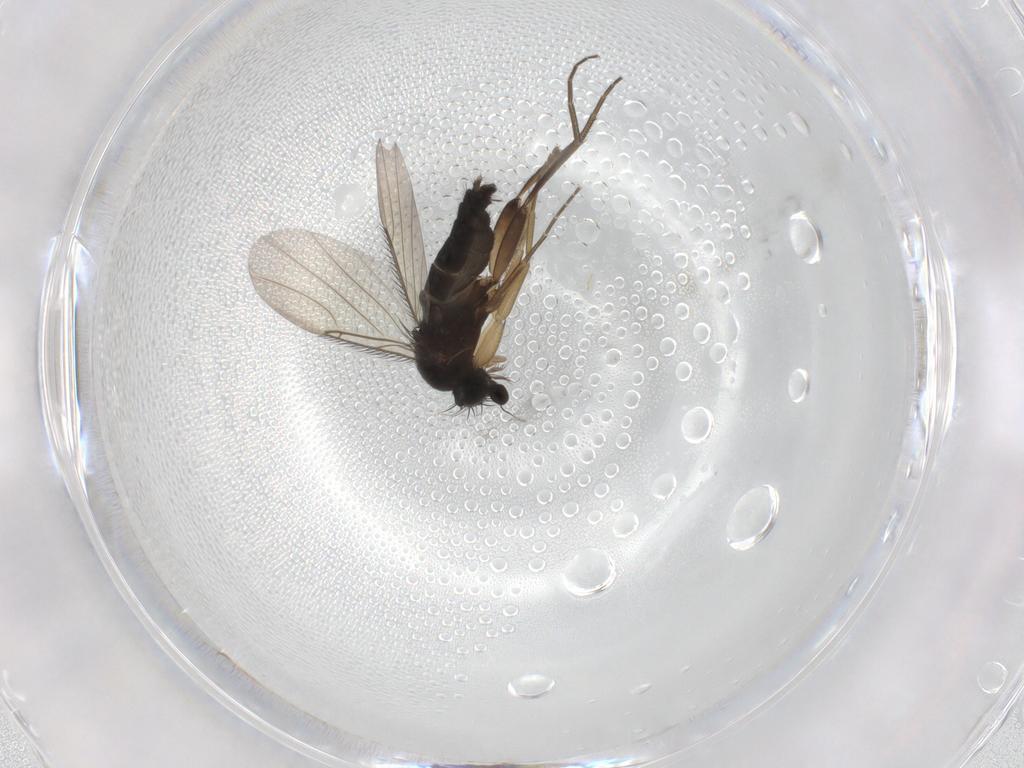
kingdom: Animalia
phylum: Arthropoda
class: Insecta
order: Diptera
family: Phoridae
